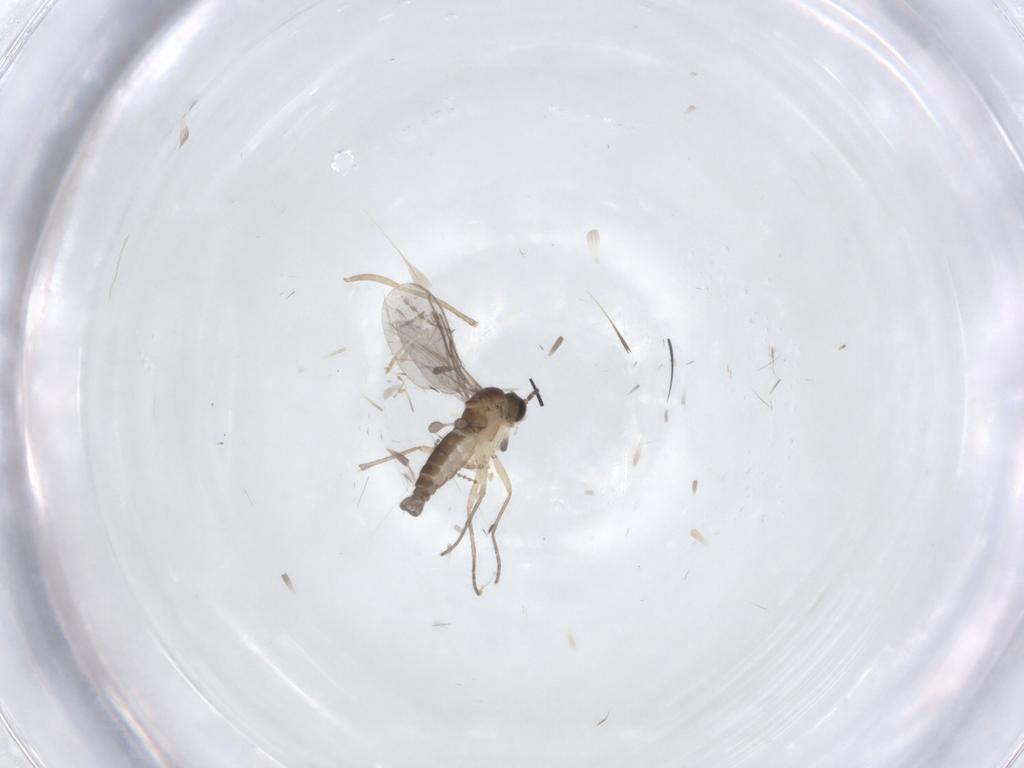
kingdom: Animalia
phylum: Arthropoda
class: Insecta
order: Diptera
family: Sciaridae
